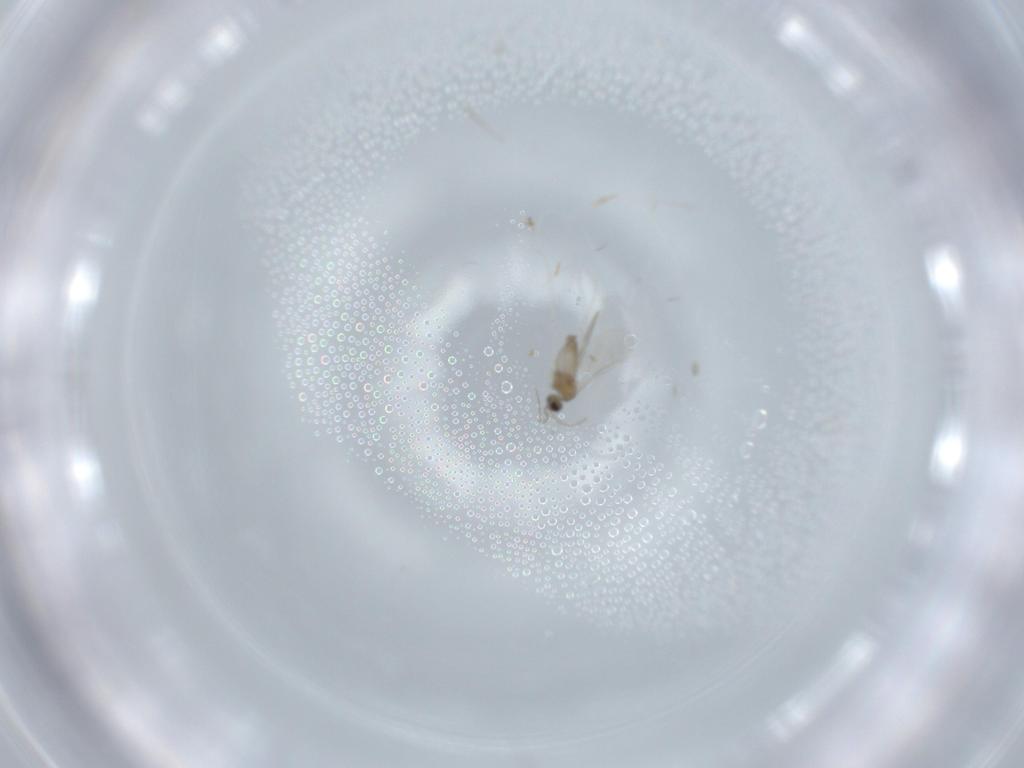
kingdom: Animalia
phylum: Arthropoda
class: Insecta
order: Diptera
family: Cecidomyiidae
